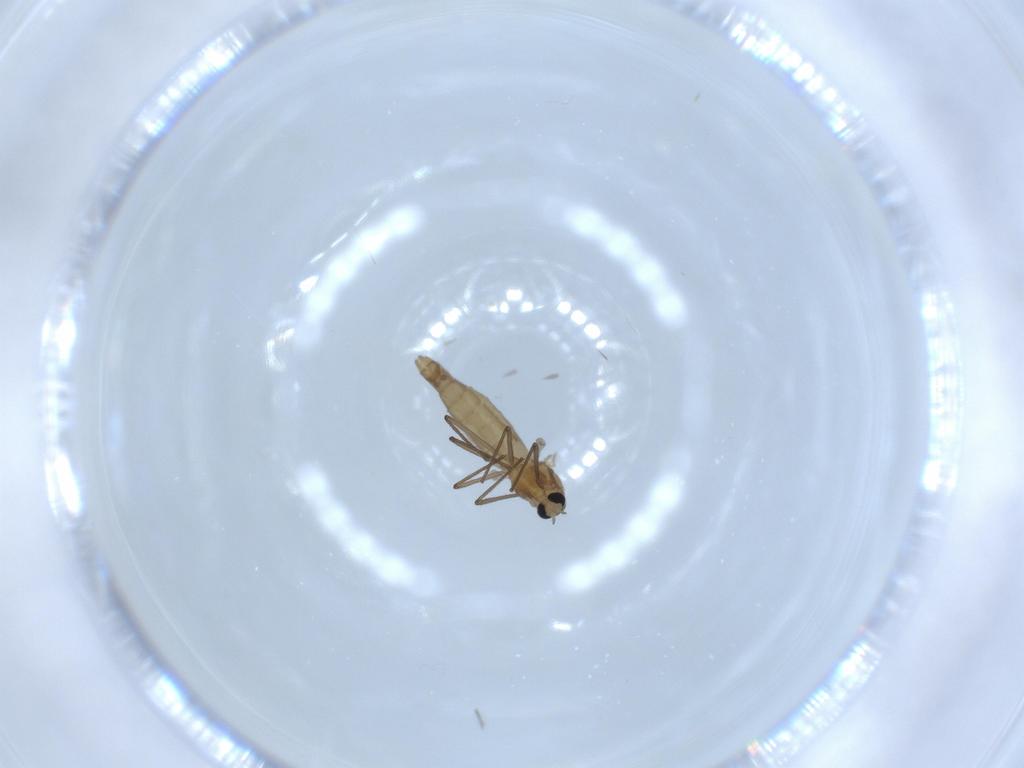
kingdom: Animalia
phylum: Arthropoda
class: Insecta
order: Diptera
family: Chironomidae
